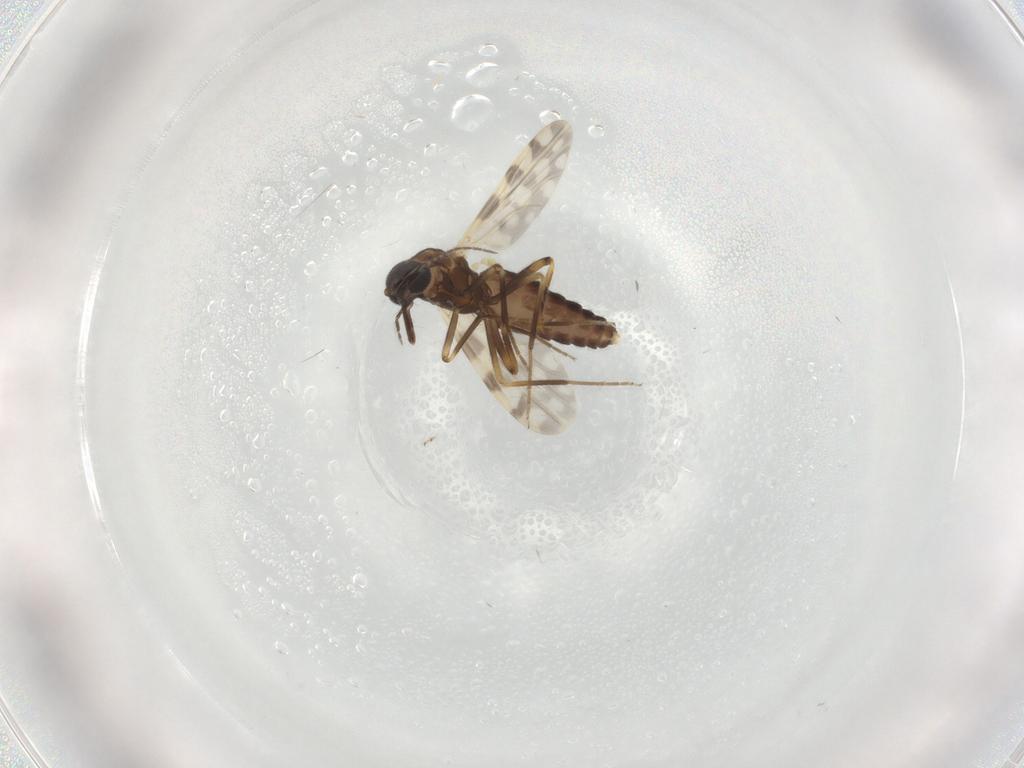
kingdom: Animalia
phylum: Arthropoda
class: Insecta
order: Diptera
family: Ceratopogonidae
